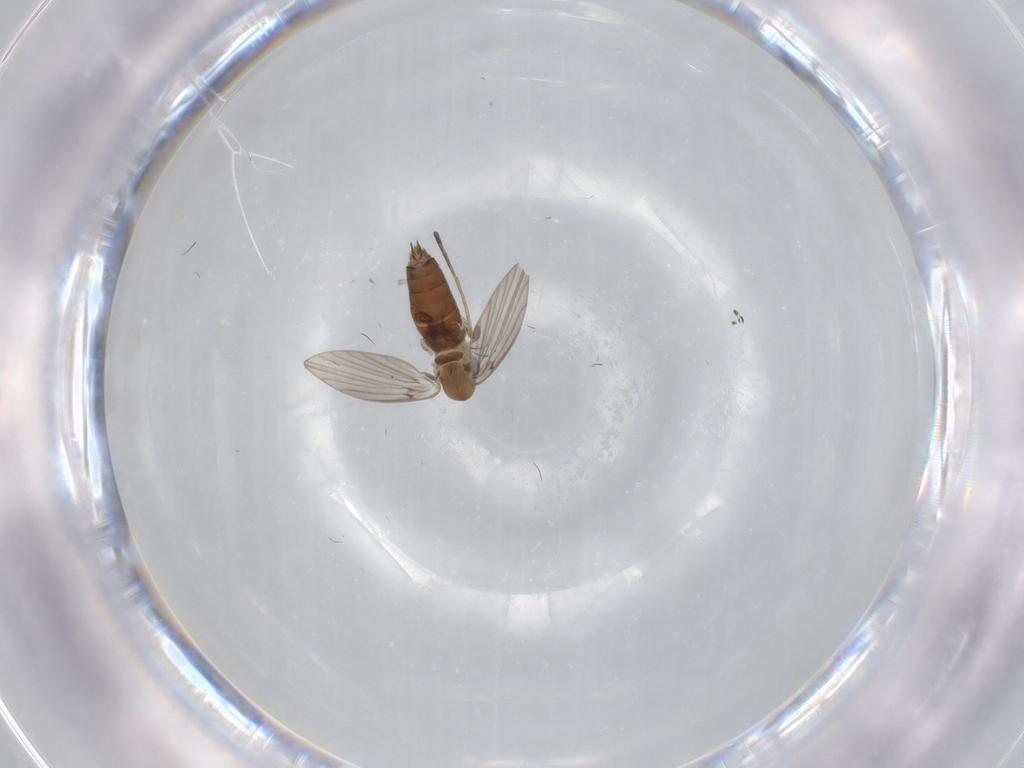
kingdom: Animalia
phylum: Arthropoda
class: Insecta
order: Diptera
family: Psychodidae
